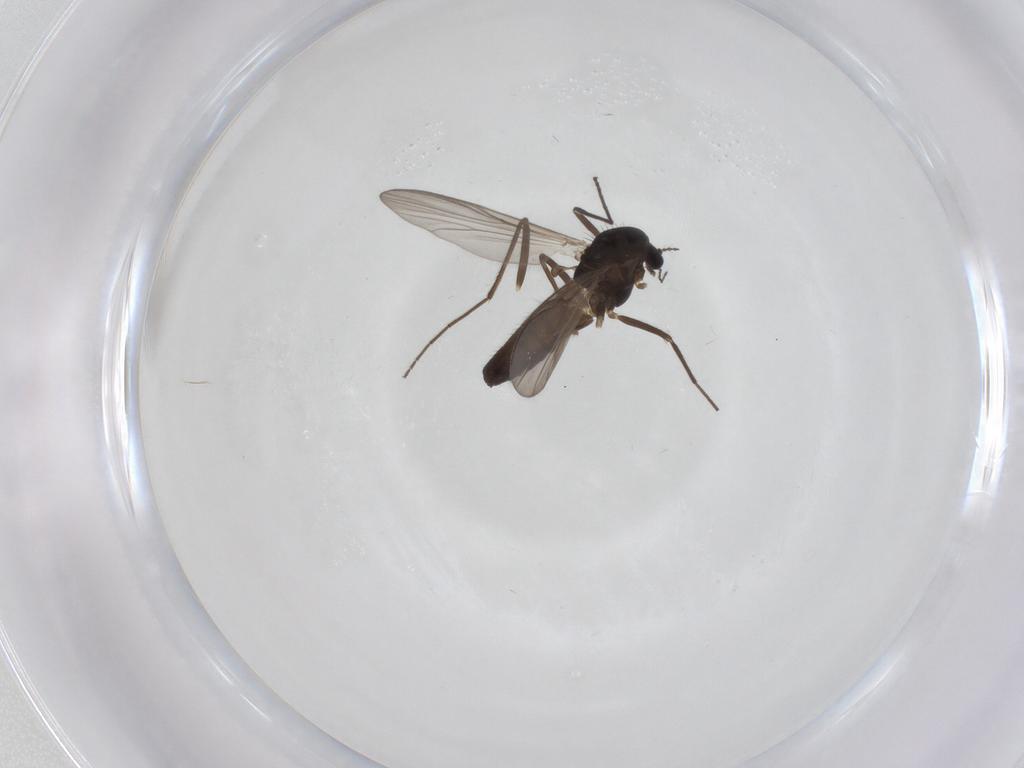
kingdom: Animalia
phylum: Arthropoda
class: Insecta
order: Diptera
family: Chironomidae
